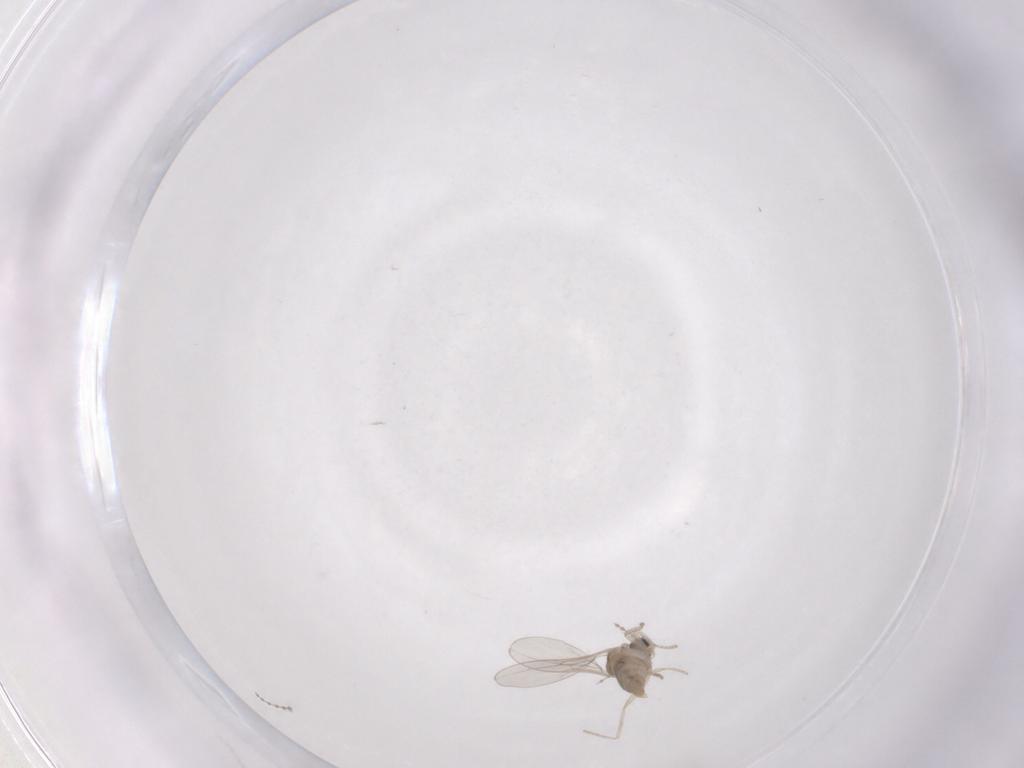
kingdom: Animalia
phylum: Arthropoda
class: Insecta
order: Diptera
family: Cecidomyiidae
